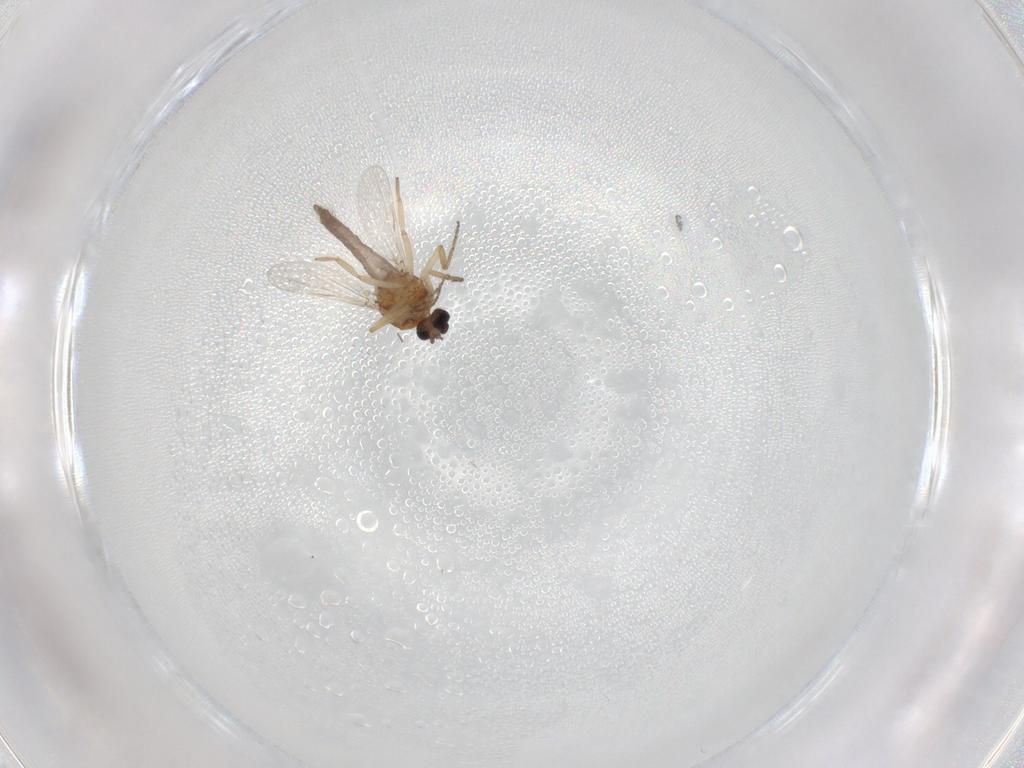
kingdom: Animalia
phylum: Arthropoda
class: Insecta
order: Diptera
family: Ceratopogonidae
